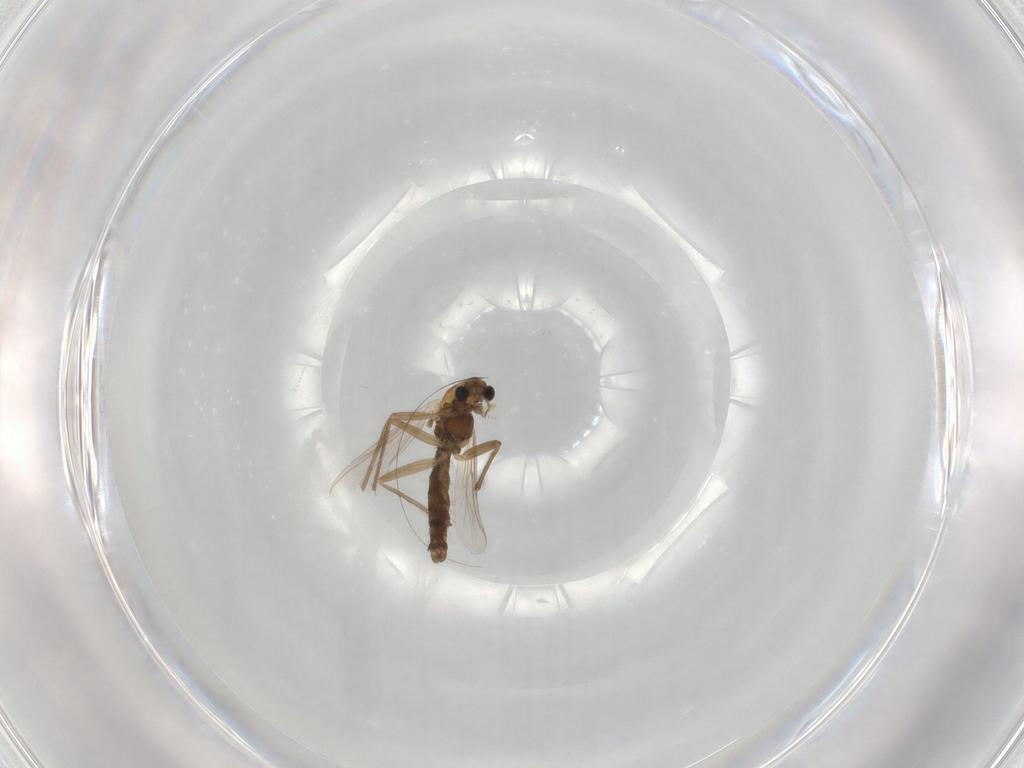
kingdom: Animalia
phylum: Arthropoda
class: Insecta
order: Diptera
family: Chironomidae
